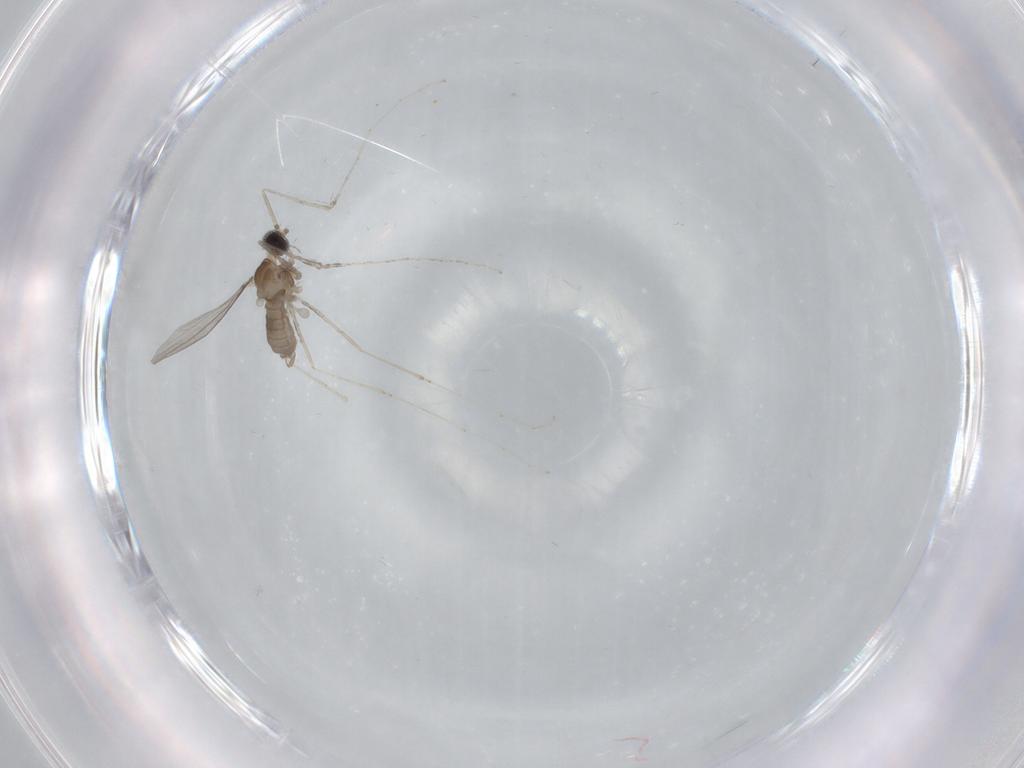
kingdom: Animalia
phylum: Arthropoda
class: Insecta
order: Diptera
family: Cecidomyiidae
